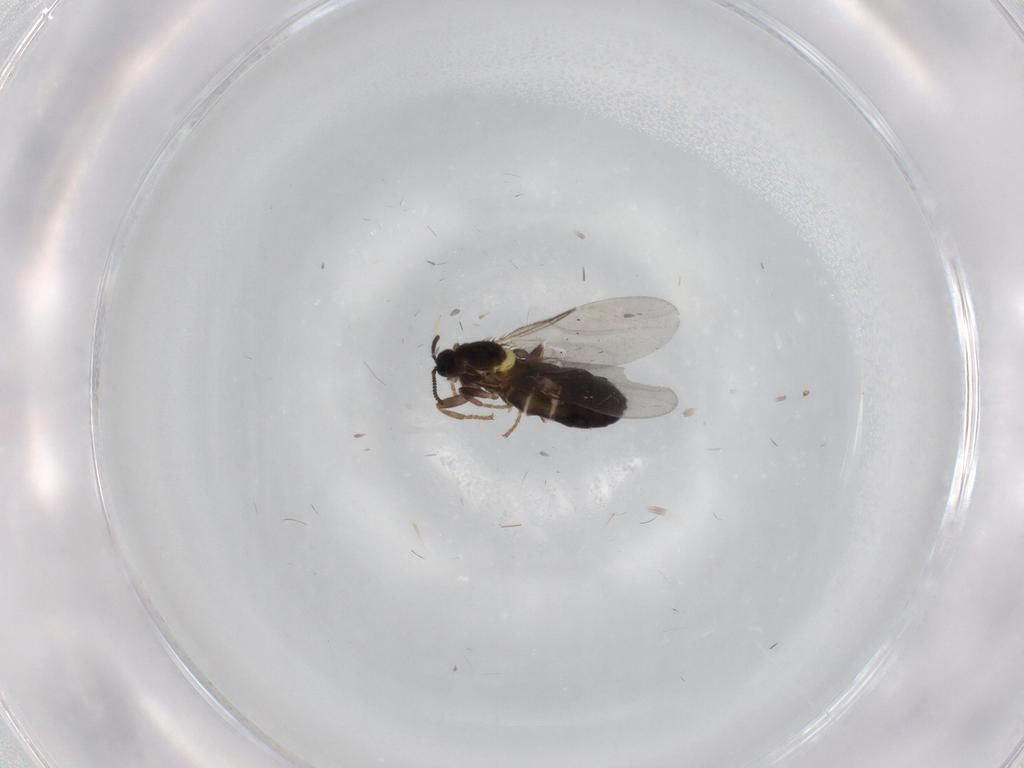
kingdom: Animalia
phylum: Arthropoda
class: Insecta
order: Diptera
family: Scatopsidae
